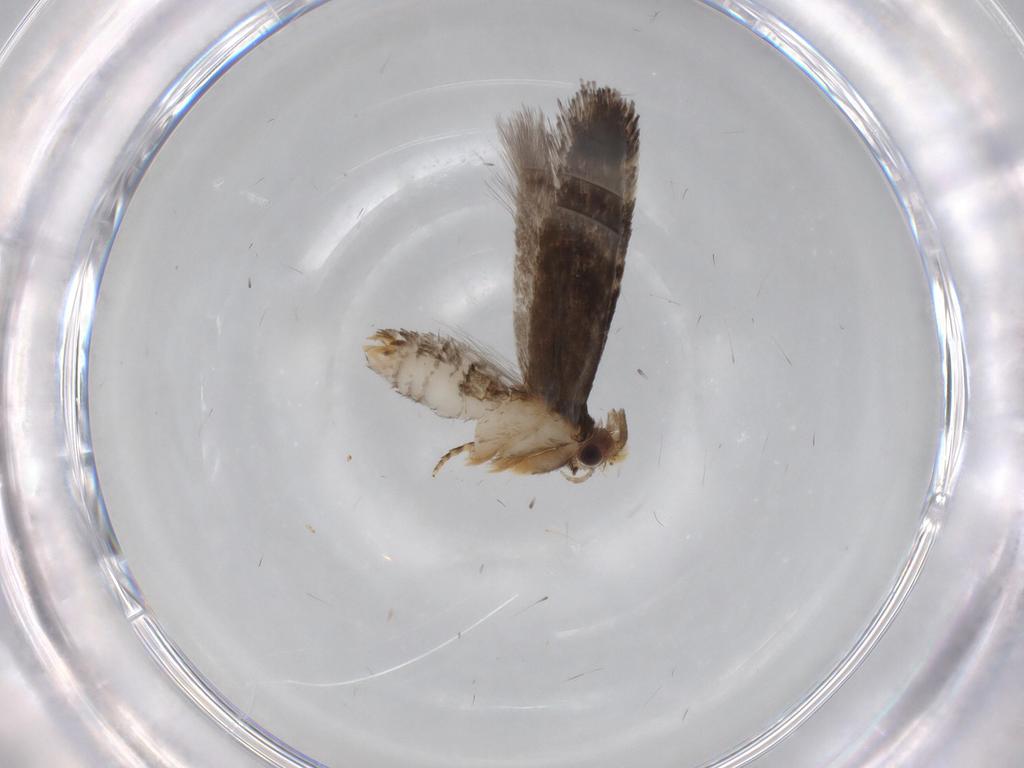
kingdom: Animalia
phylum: Arthropoda
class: Insecta
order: Lepidoptera
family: Tineidae
